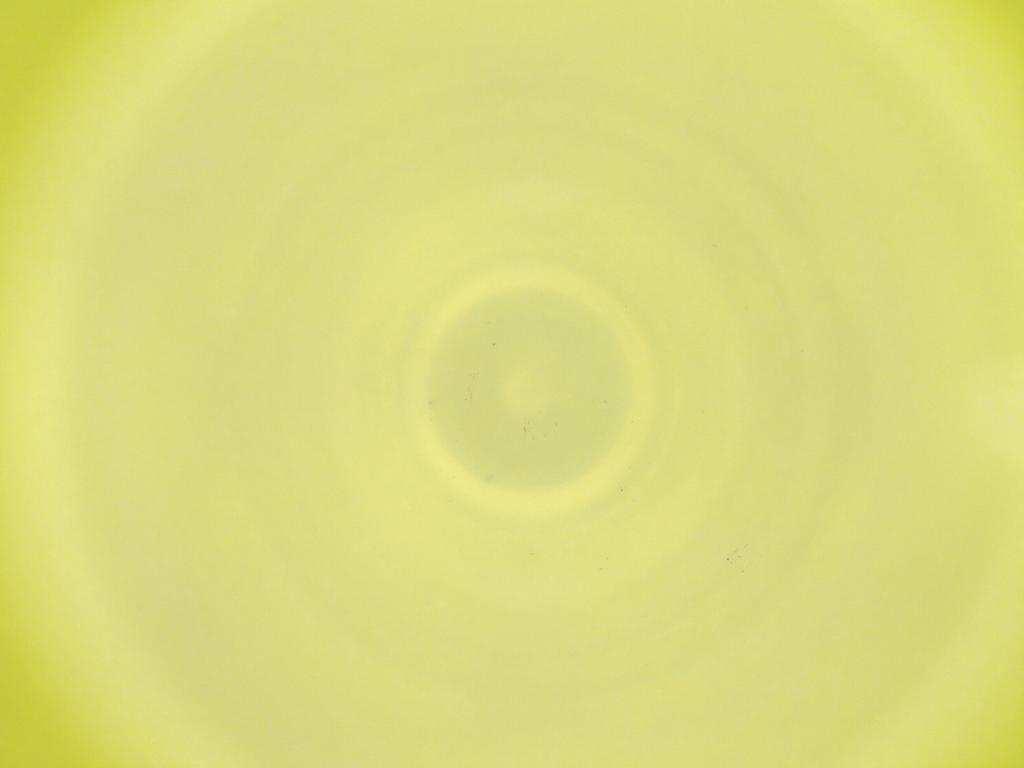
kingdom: Animalia
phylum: Arthropoda
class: Insecta
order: Diptera
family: Cecidomyiidae
